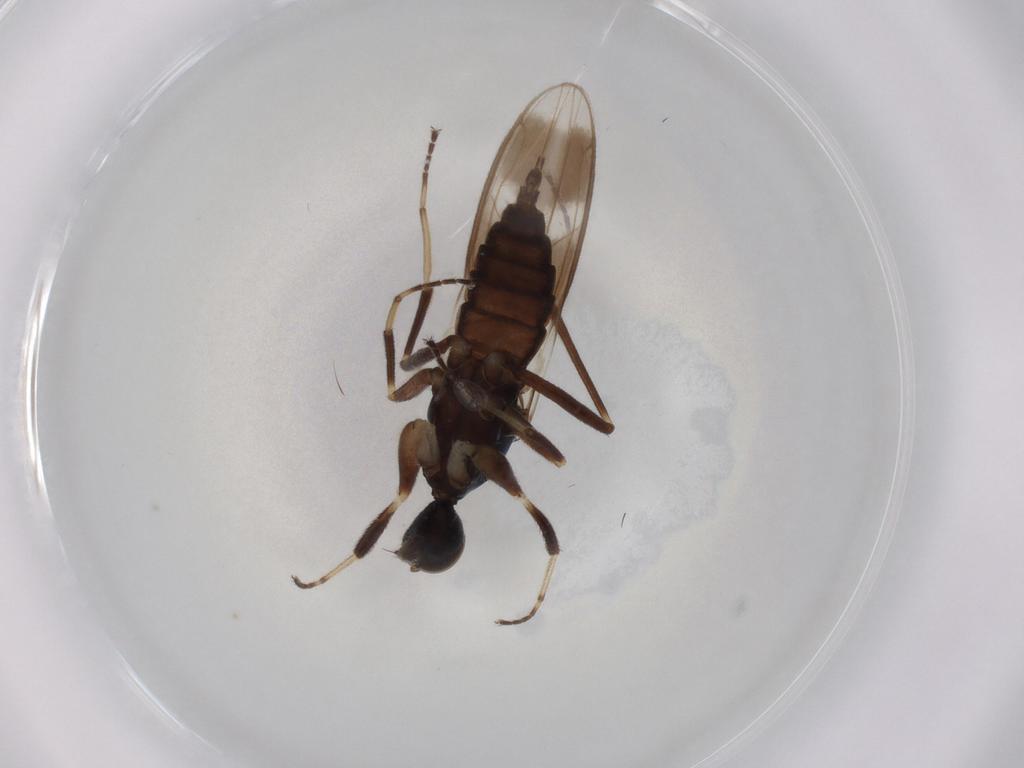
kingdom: Animalia
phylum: Arthropoda
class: Insecta
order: Diptera
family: Hybotidae
